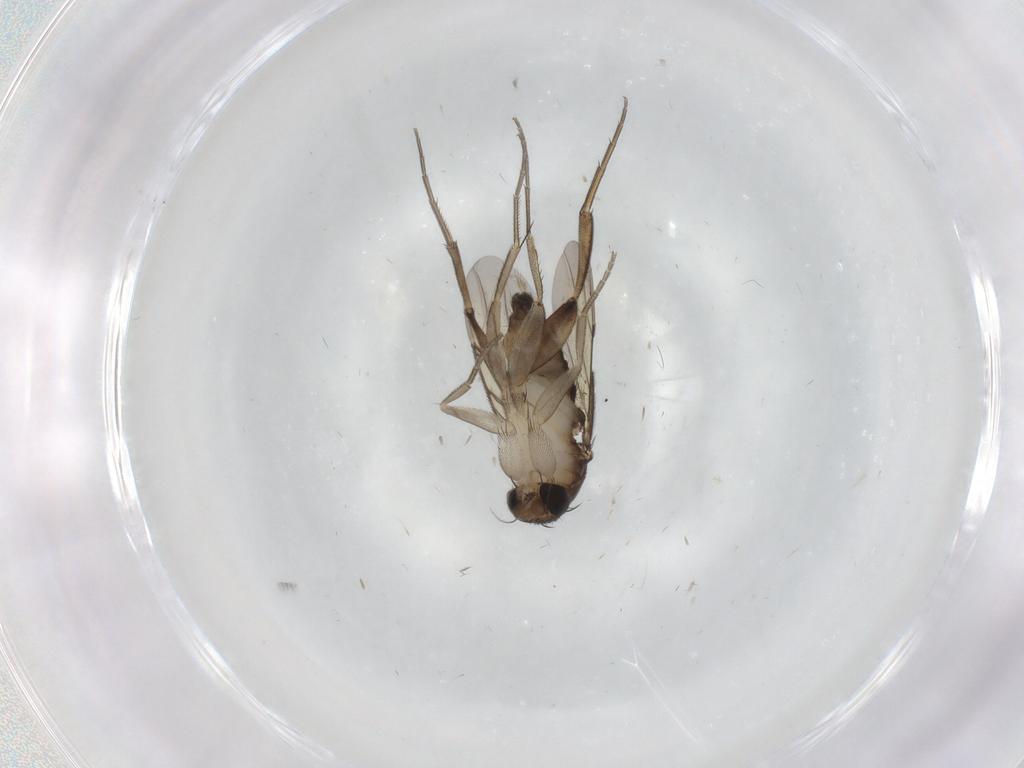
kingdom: Animalia
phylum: Arthropoda
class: Insecta
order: Diptera
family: Phoridae
